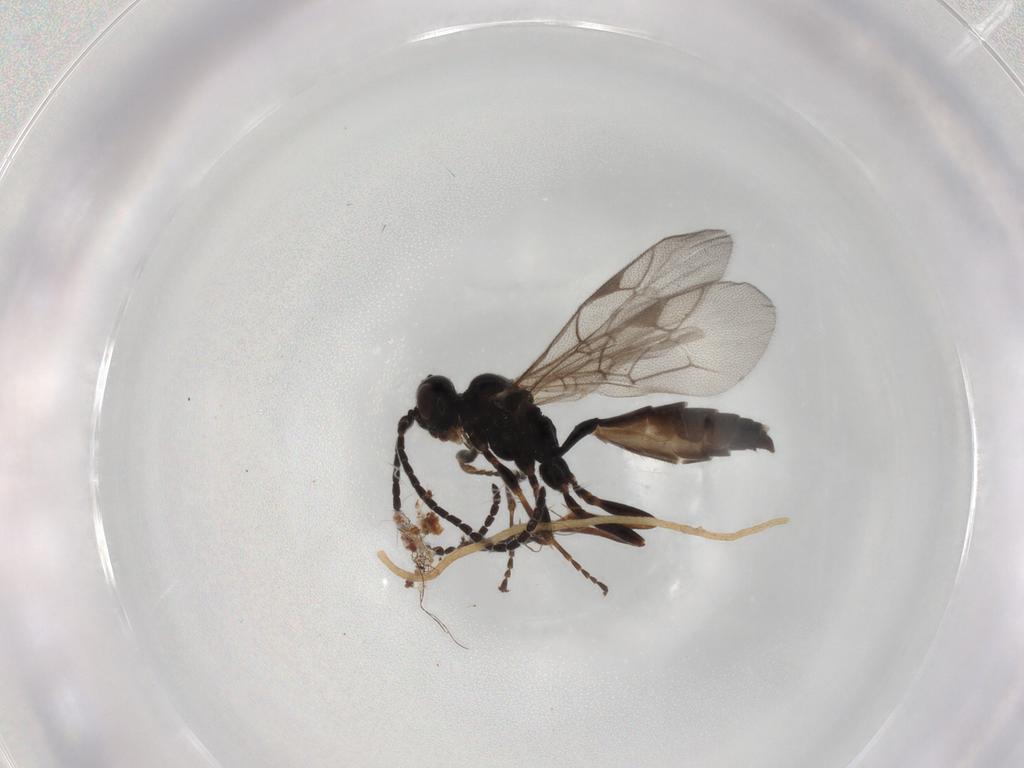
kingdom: Animalia
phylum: Arthropoda
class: Insecta
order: Hymenoptera
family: Ichneumonidae
